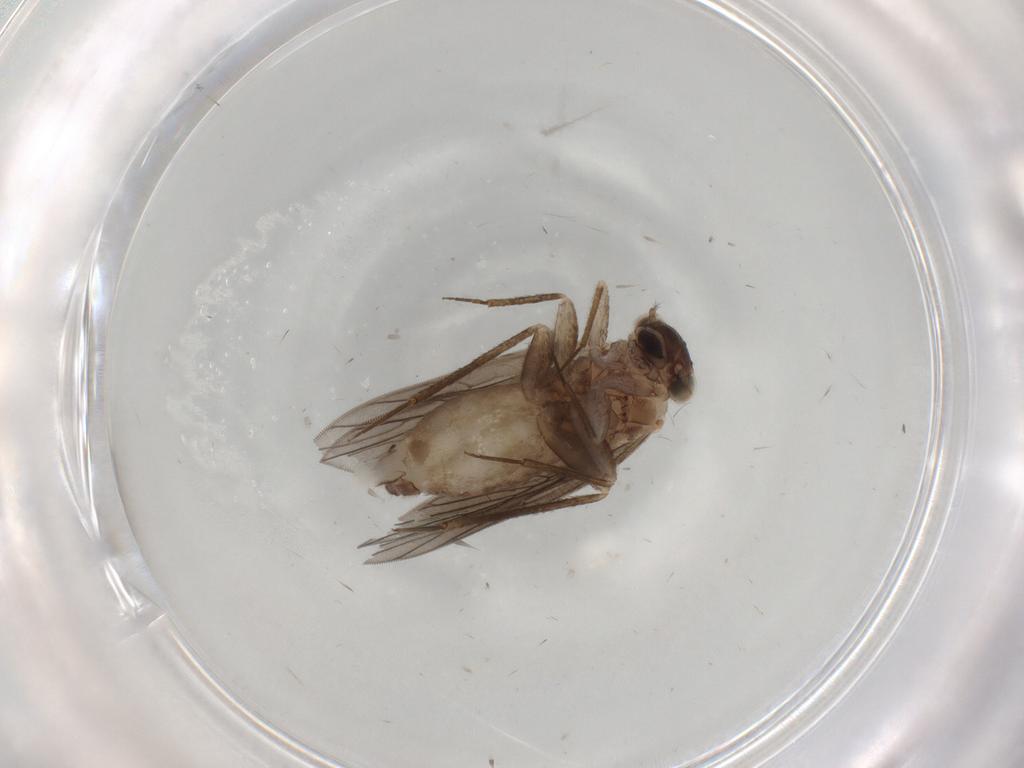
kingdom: Animalia
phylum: Arthropoda
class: Insecta
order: Psocodea
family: Lepidopsocidae
